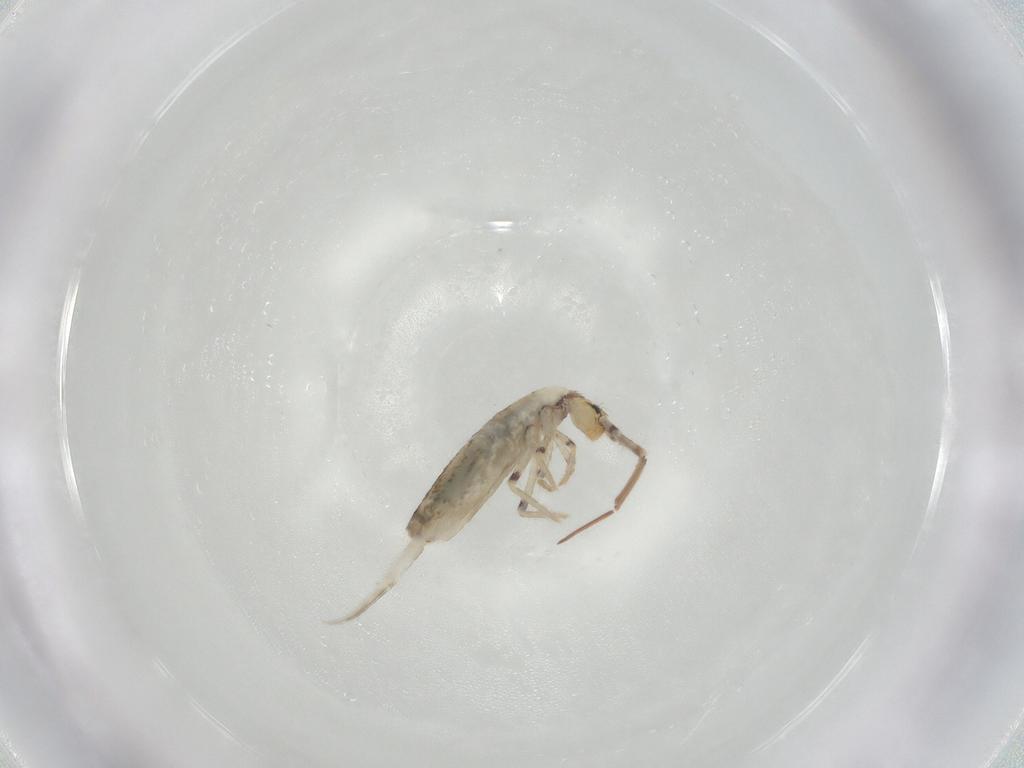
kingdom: Animalia
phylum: Arthropoda
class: Collembola
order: Entomobryomorpha
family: Entomobryidae
